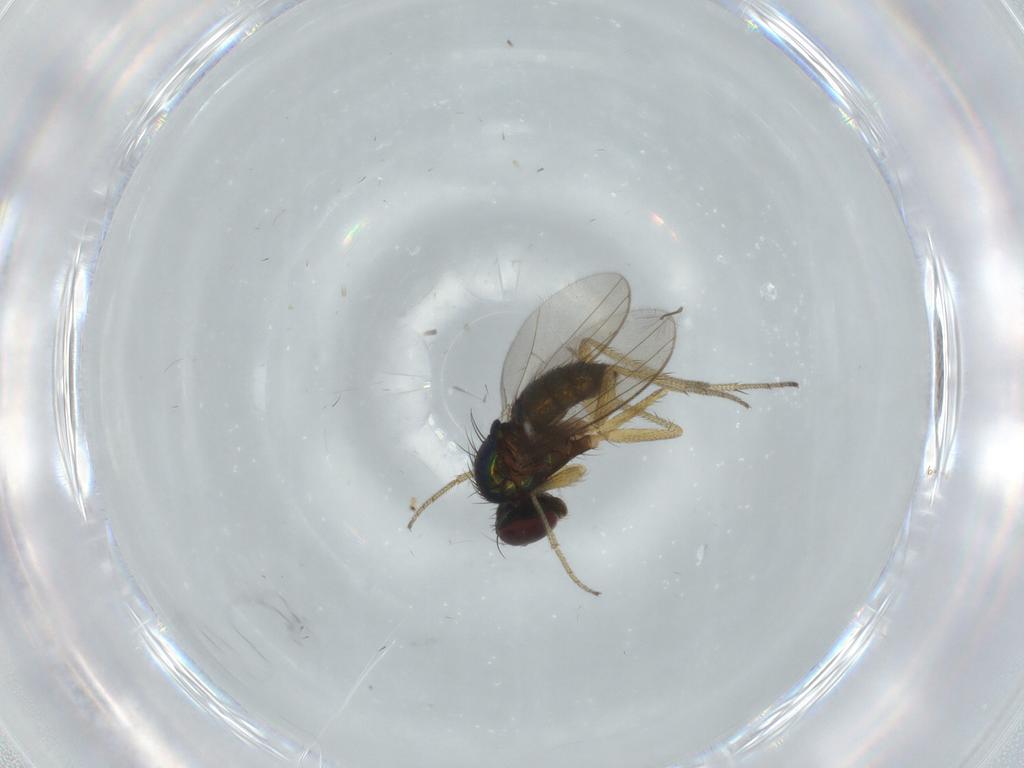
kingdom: Animalia
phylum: Arthropoda
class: Insecta
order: Diptera
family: Dolichopodidae
